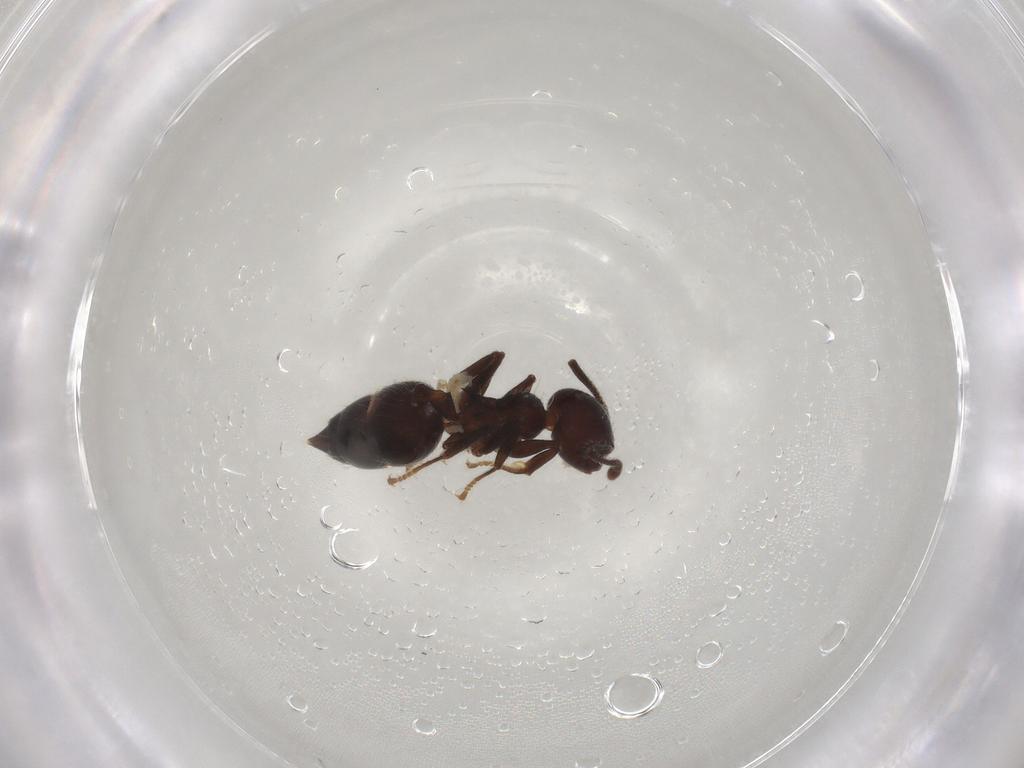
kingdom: Animalia
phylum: Arthropoda
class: Insecta
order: Hymenoptera
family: Formicidae
